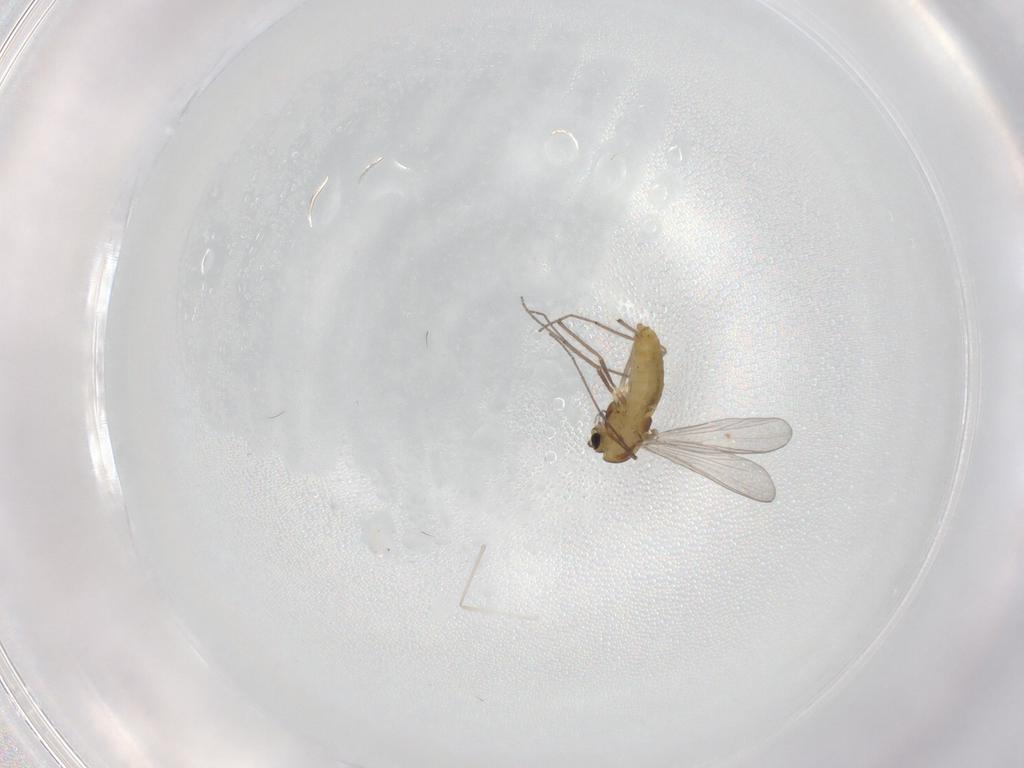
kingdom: Animalia
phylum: Arthropoda
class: Insecta
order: Diptera
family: Chironomidae
